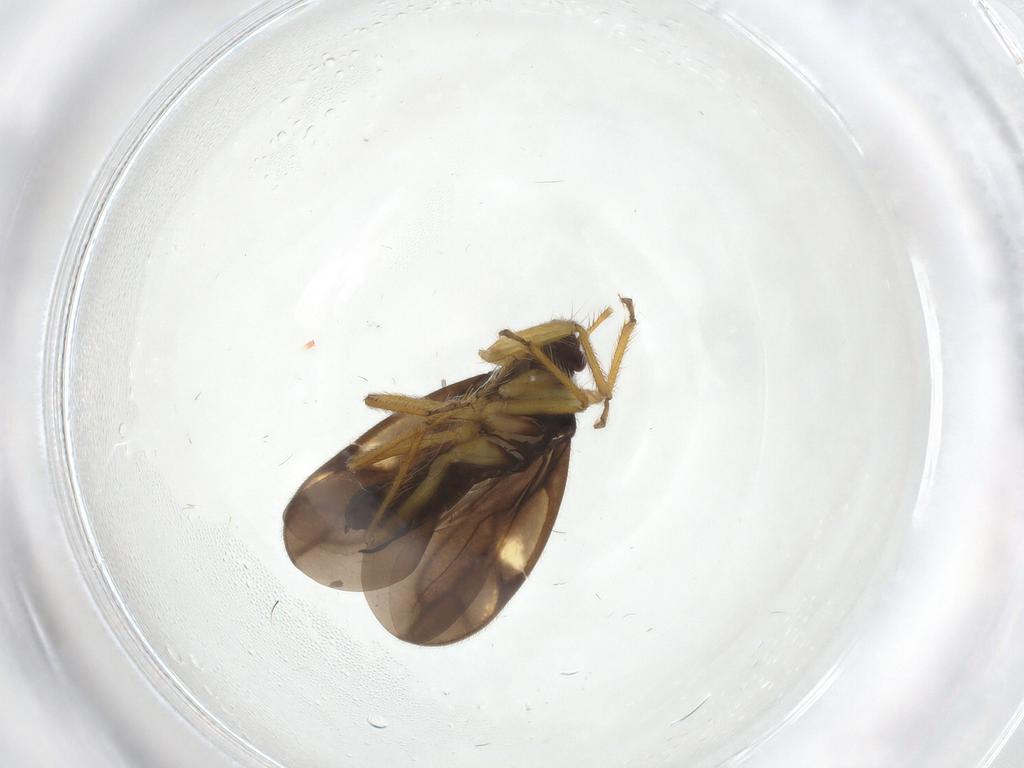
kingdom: Animalia
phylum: Arthropoda
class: Insecta
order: Hemiptera
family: Ceratocombidae
